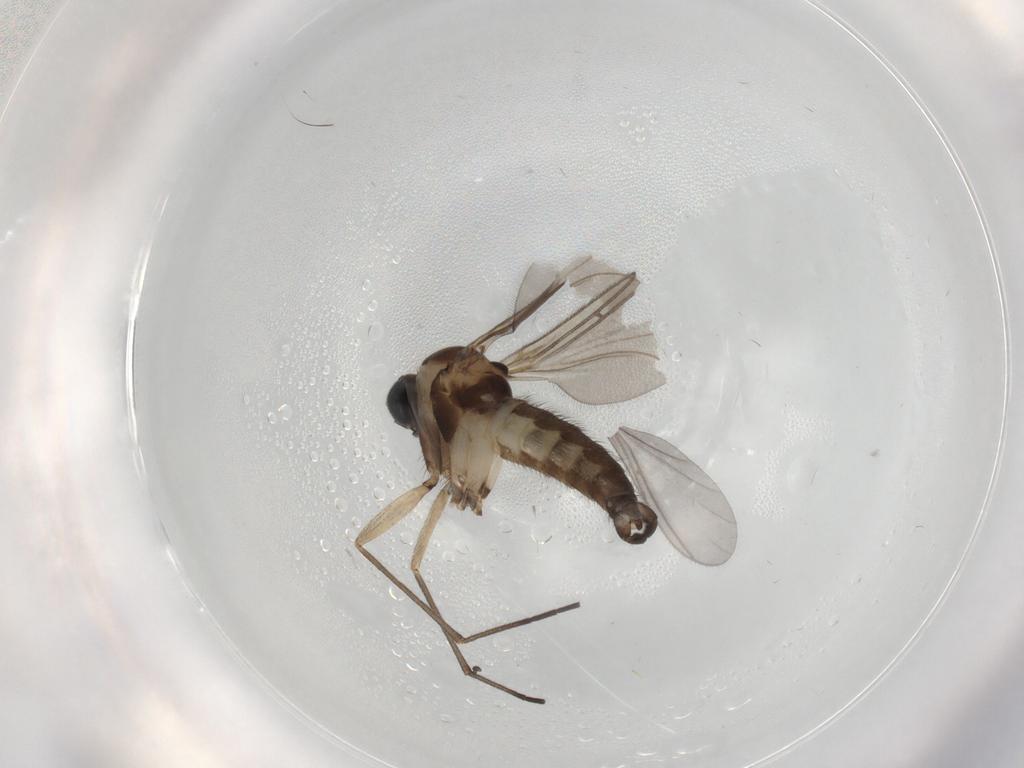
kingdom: Animalia
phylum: Arthropoda
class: Insecta
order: Diptera
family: Sciaridae
